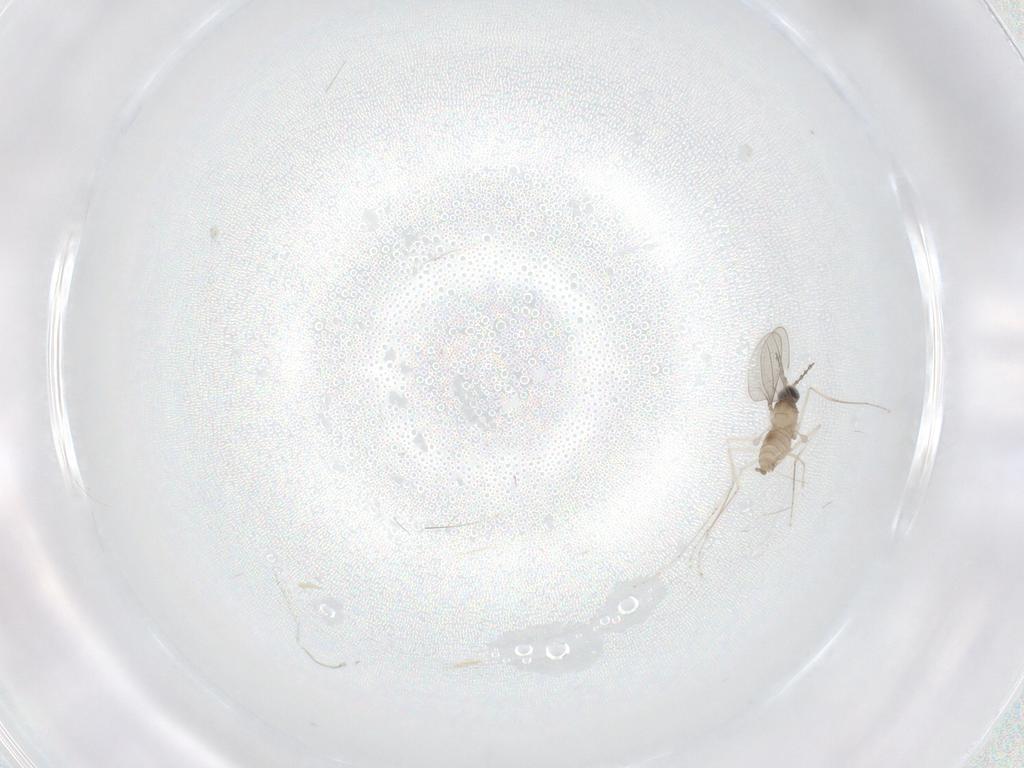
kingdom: Animalia
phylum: Arthropoda
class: Insecta
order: Diptera
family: Cecidomyiidae
